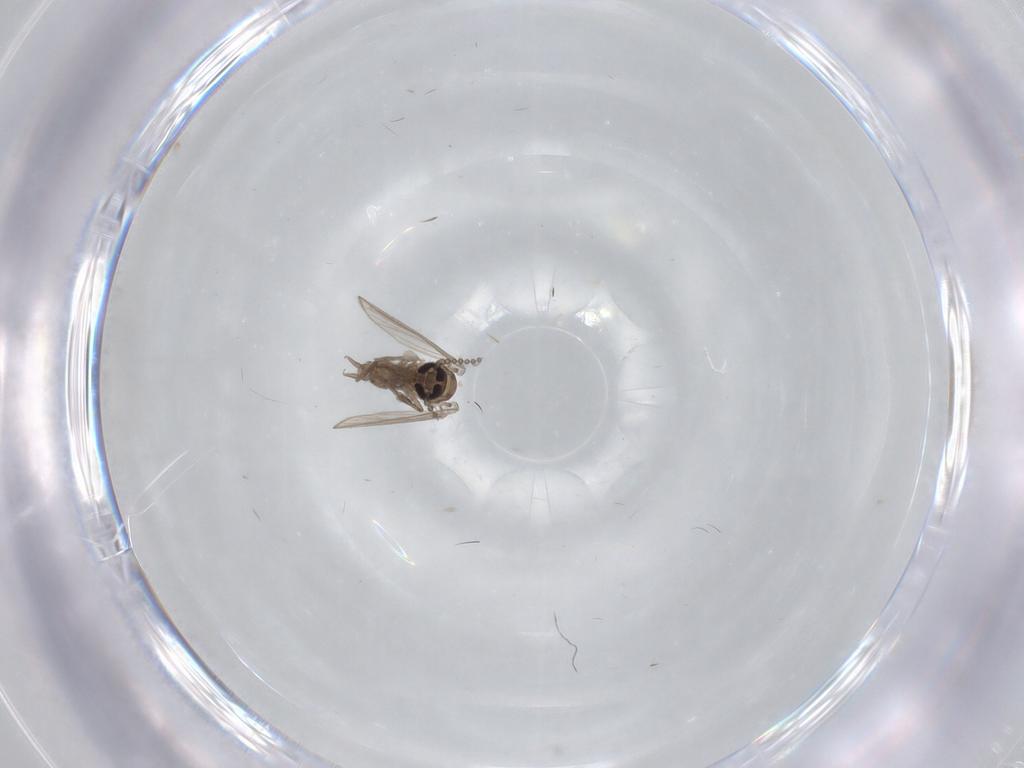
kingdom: Animalia
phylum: Arthropoda
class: Insecta
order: Diptera
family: Psychodidae
